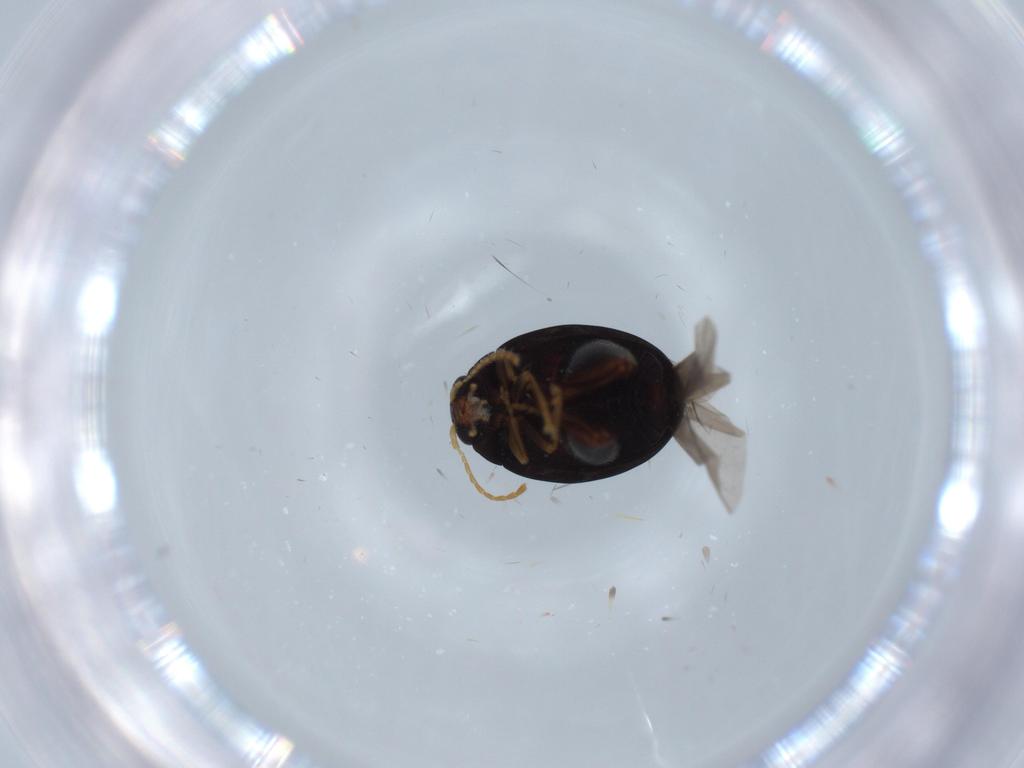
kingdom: Animalia
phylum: Arthropoda
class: Insecta
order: Coleoptera
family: Chrysomelidae
